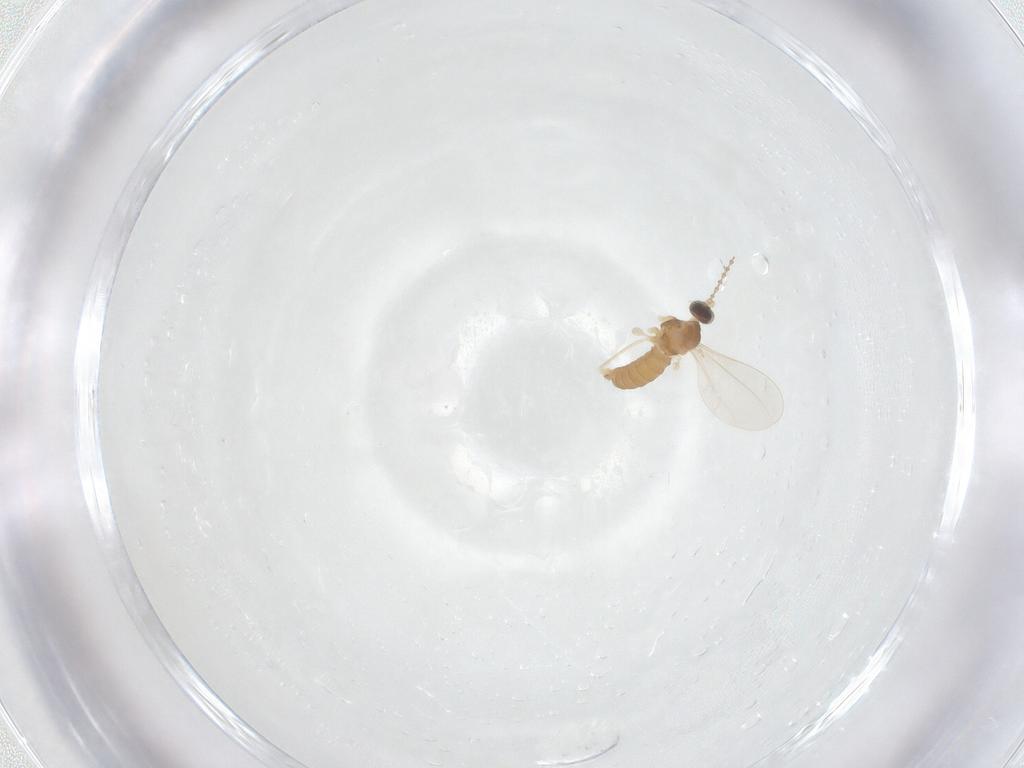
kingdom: Animalia
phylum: Arthropoda
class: Insecta
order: Diptera
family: Cecidomyiidae
